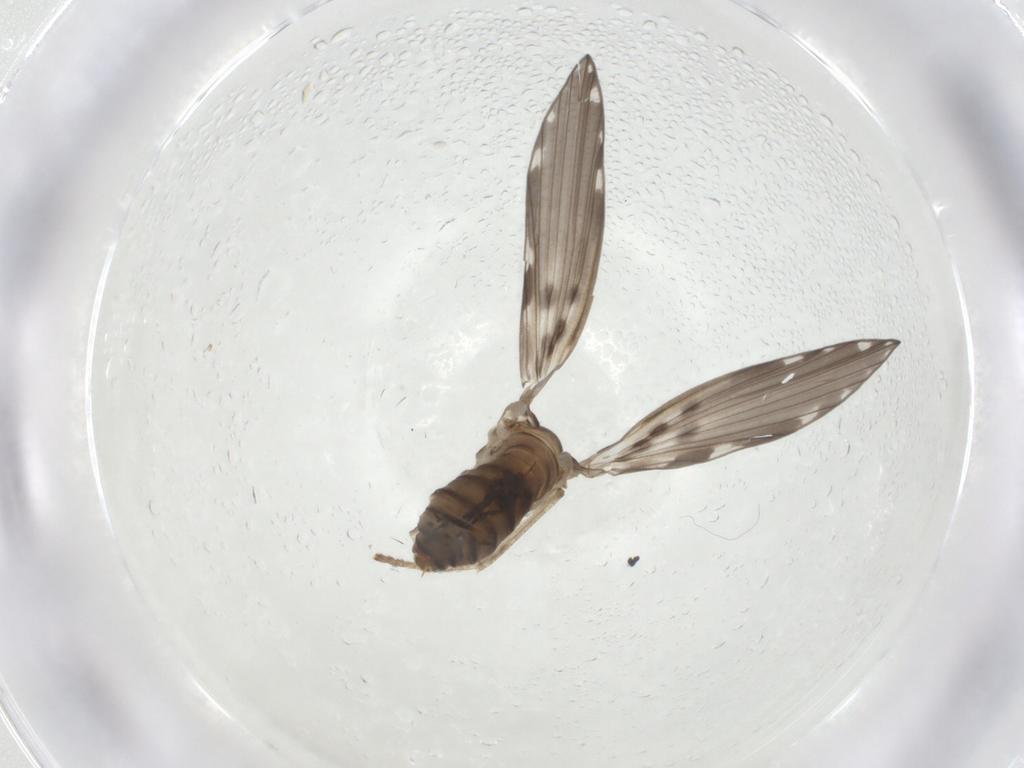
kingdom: Animalia
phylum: Arthropoda
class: Insecta
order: Diptera
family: Psychodidae
